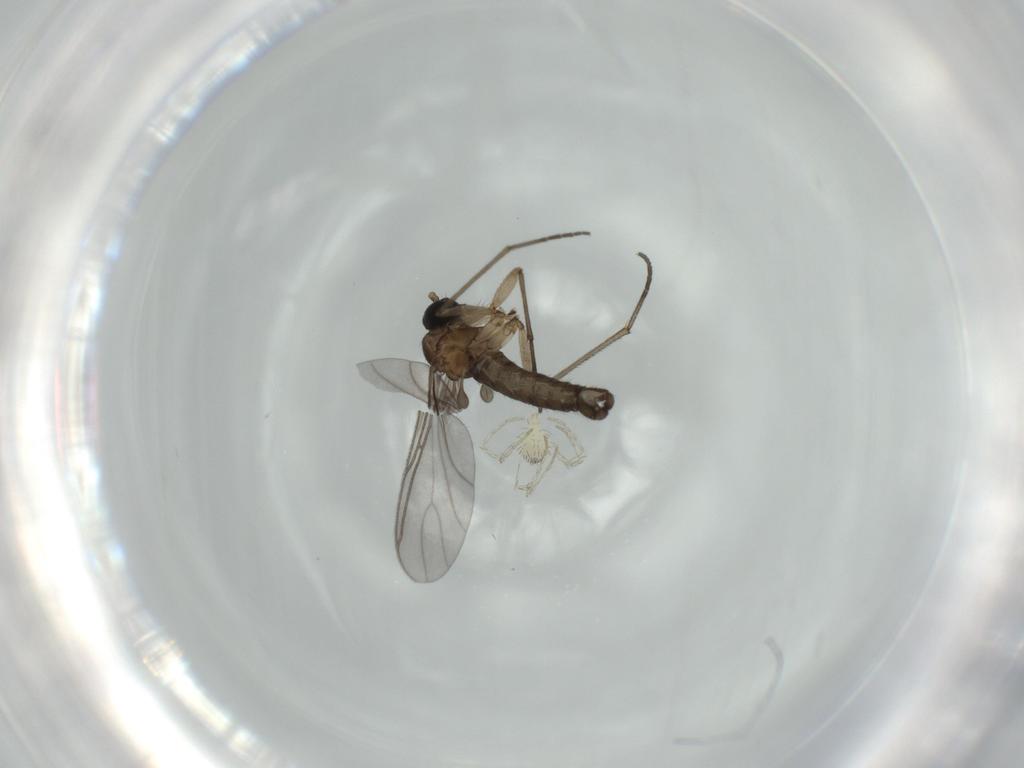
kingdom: Animalia
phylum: Arthropoda
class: Insecta
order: Diptera
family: Sciaridae
